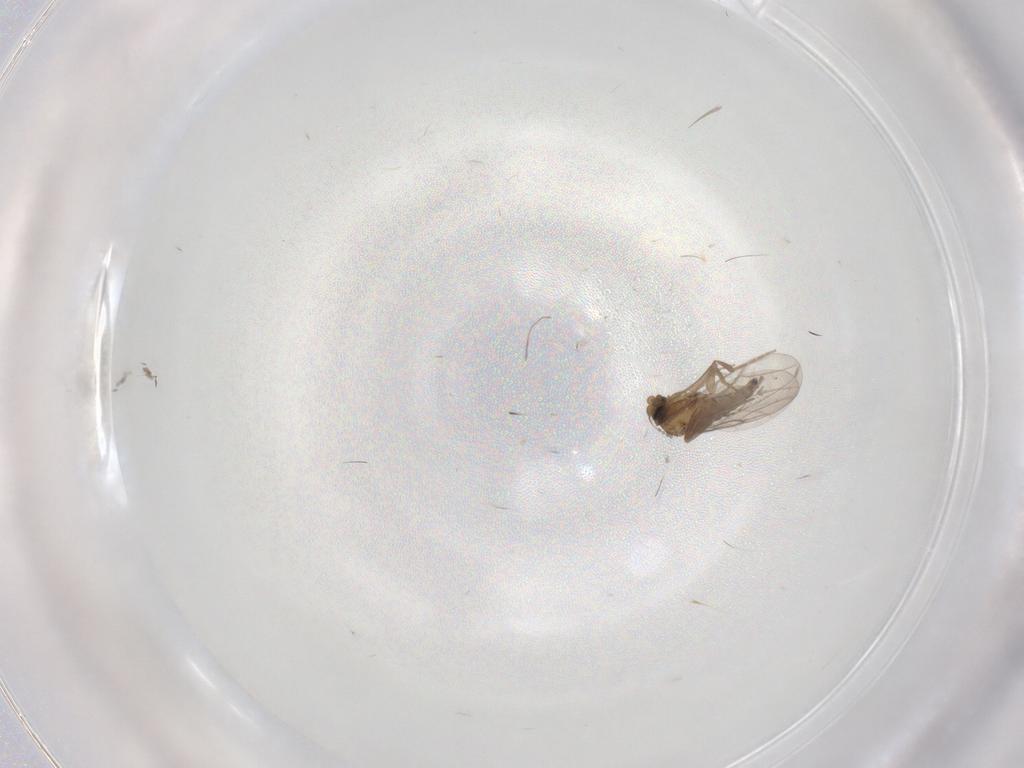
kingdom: Animalia
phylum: Arthropoda
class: Insecta
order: Diptera
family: Psychodidae
